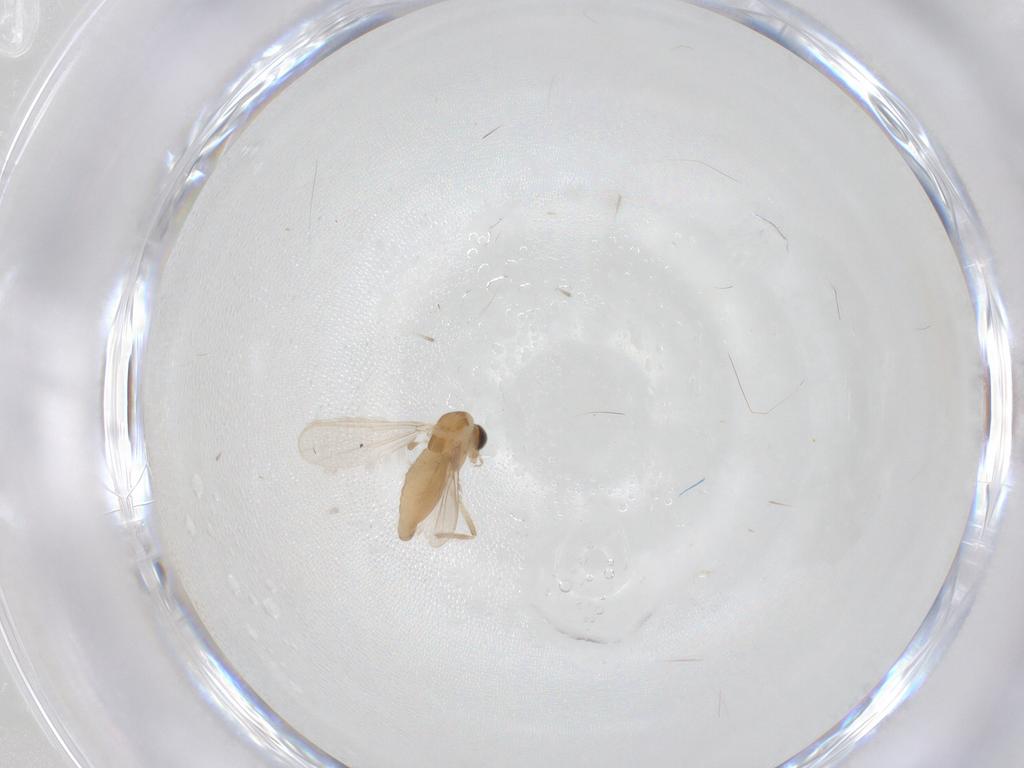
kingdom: Animalia
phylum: Arthropoda
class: Insecta
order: Diptera
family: Chironomidae
